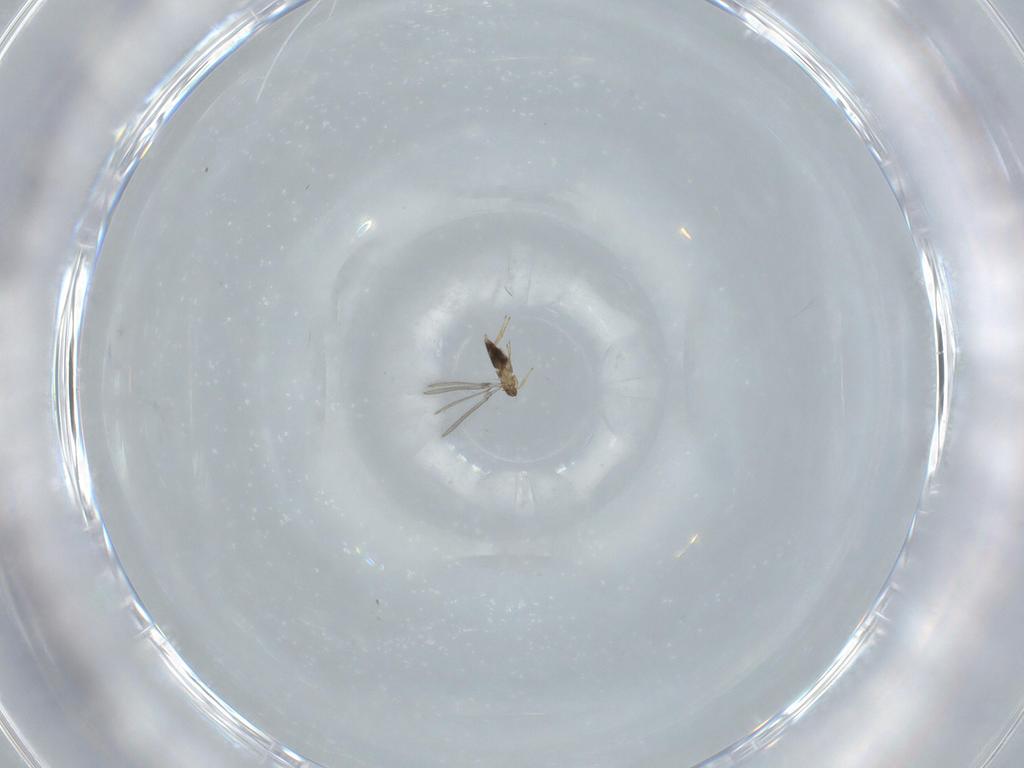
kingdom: Animalia
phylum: Arthropoda
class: Insecta
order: Hymenoptera
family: Mymaridae
